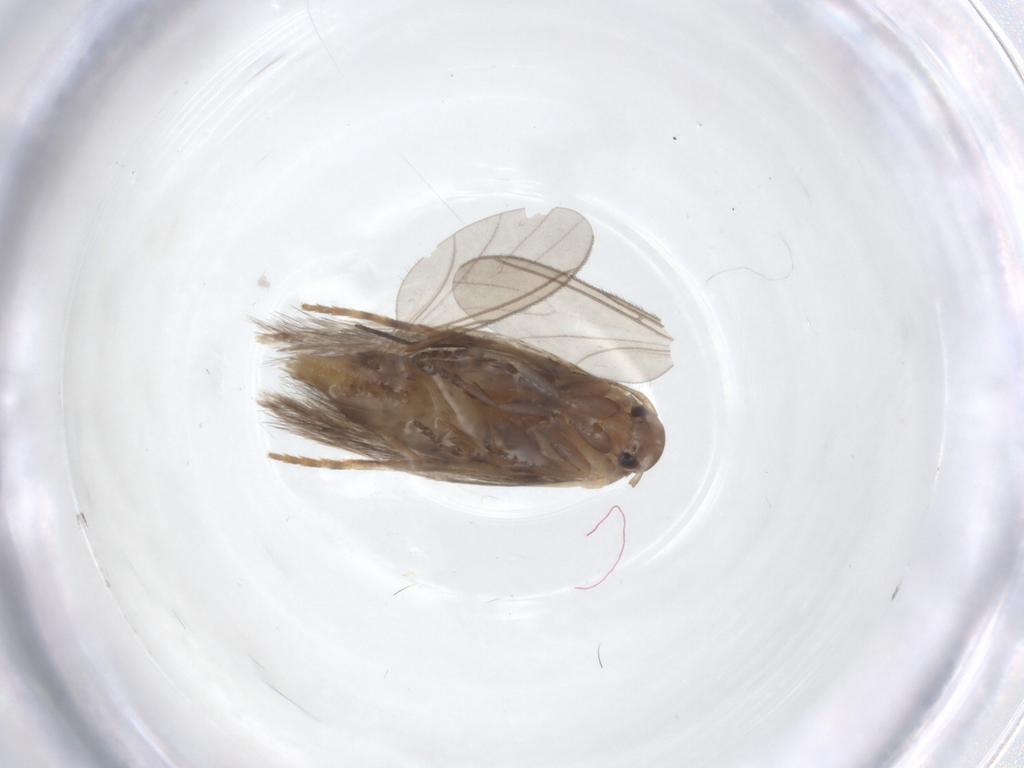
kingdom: Animalia
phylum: Arthropoda
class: Insecta
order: Lepidoptera
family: Elachistidae
